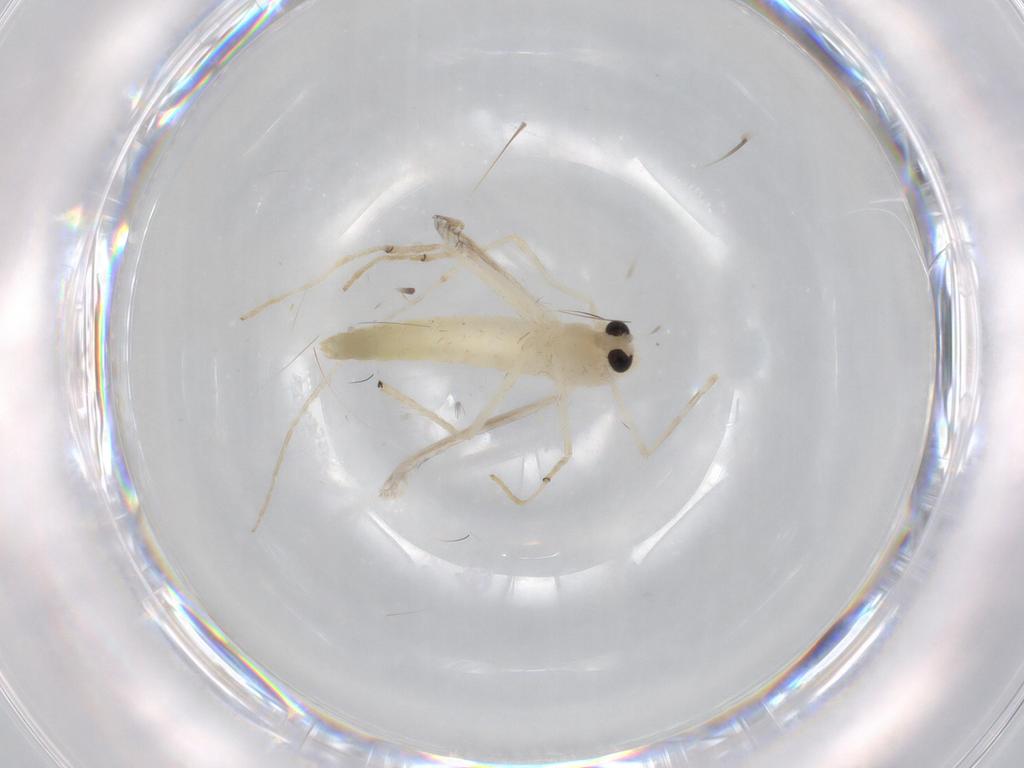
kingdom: Animalia
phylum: Arthropoda
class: Insecta
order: Diptera
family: Chironomidae
